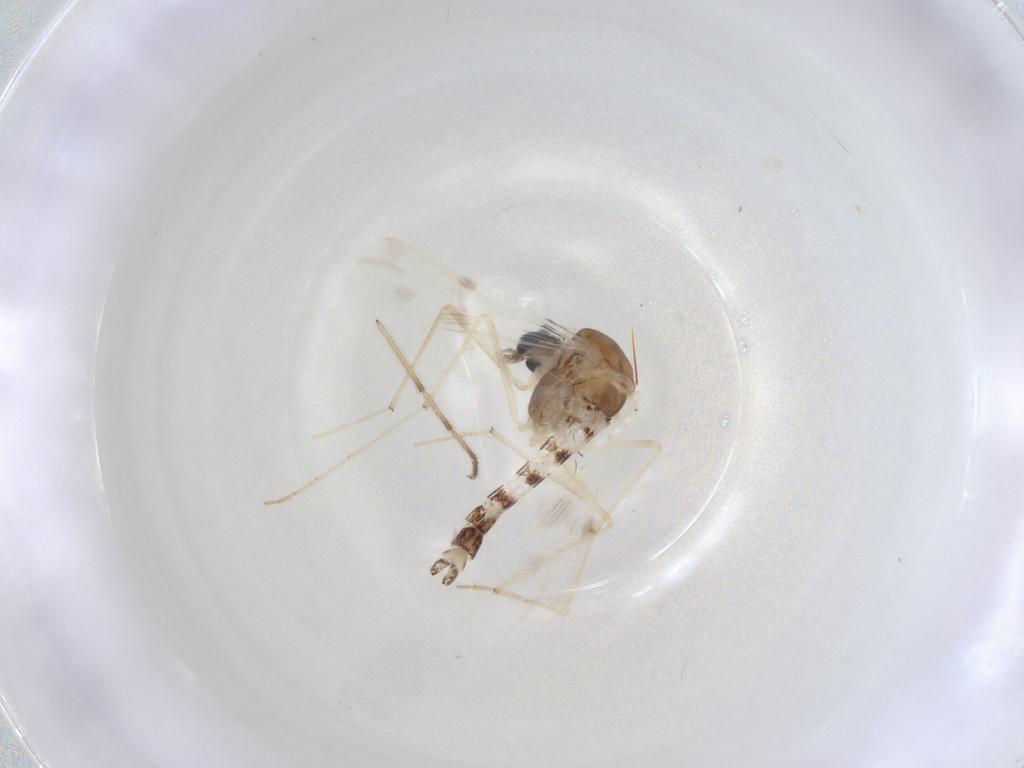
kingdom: Animalia
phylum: Arthropoda
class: Insecta
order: Diptera
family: Chironomidae
